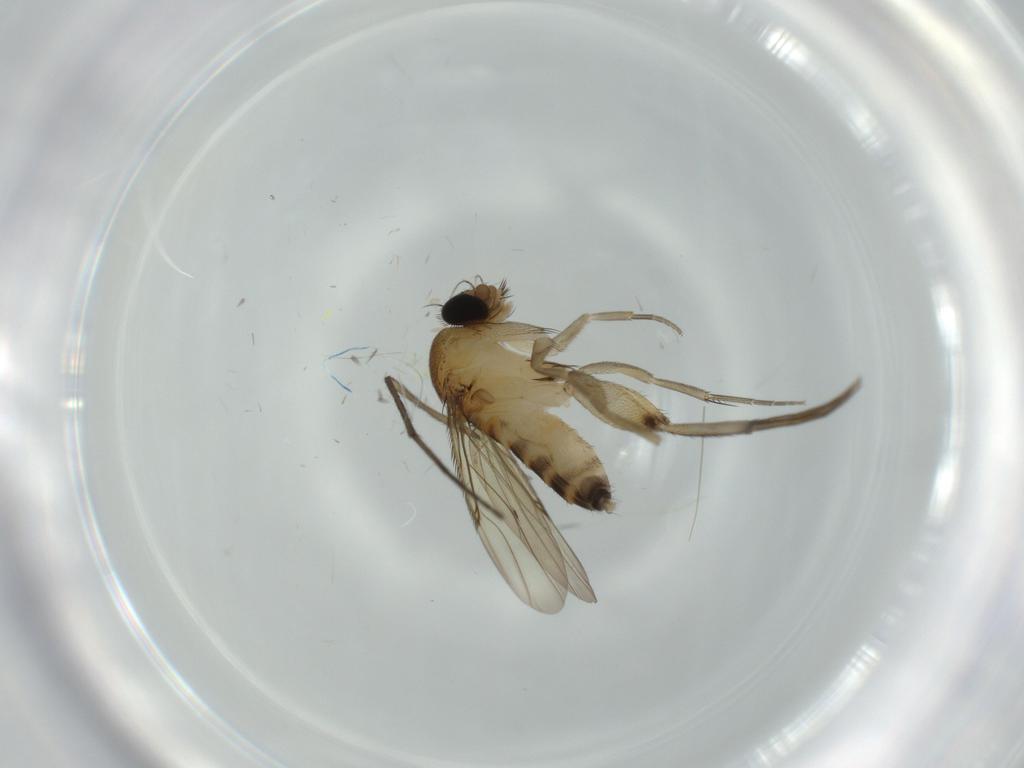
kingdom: Animalia
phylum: Arthropoda
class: Insecta
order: Diptera
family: Phoridae
